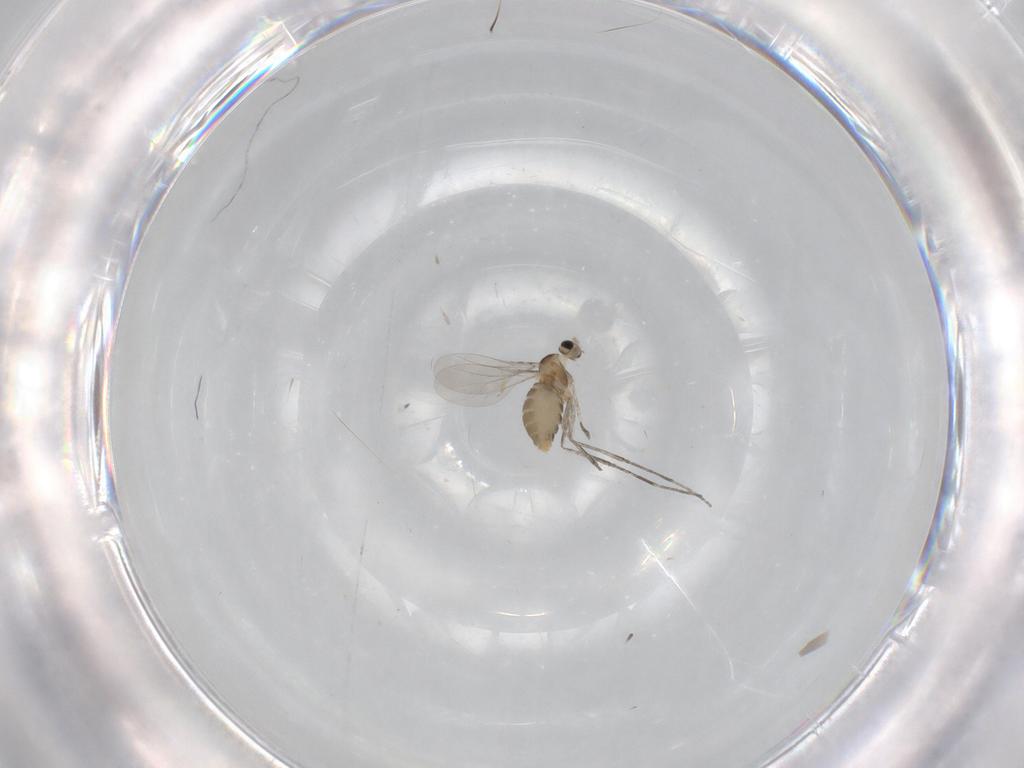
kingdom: Animalia
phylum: Arthropoda
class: Insecta
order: Diptera
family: Cecidomyiidae
